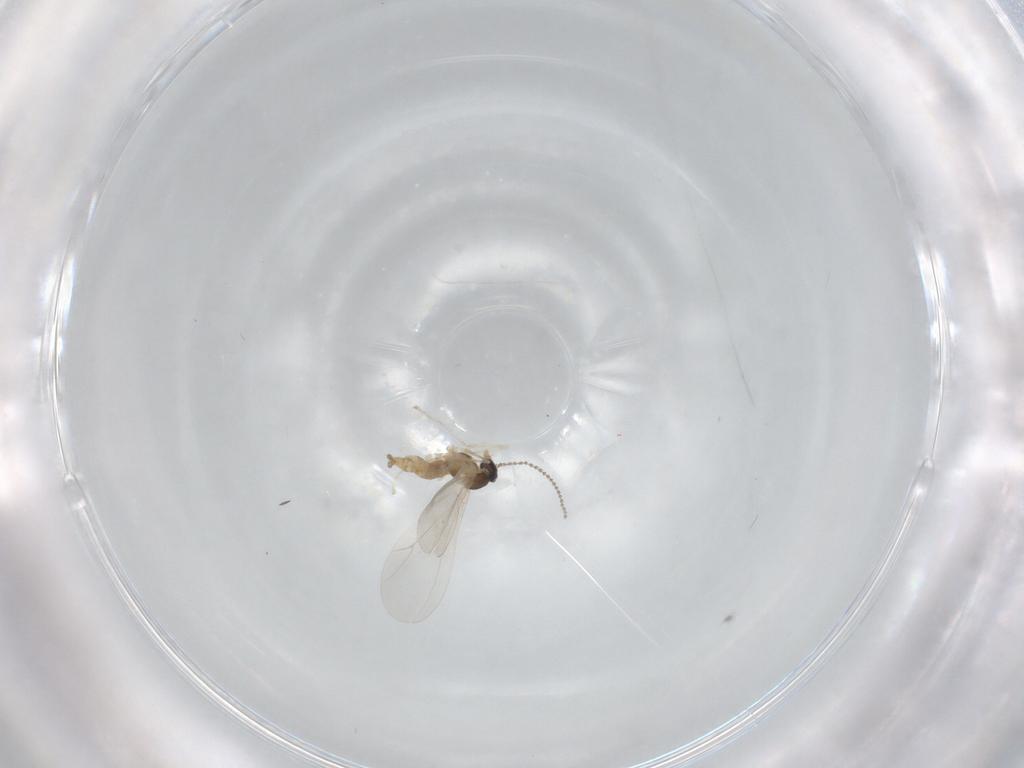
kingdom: Animalia
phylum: Arthropoda
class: Insecta
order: Diptera
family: Cecidomyiidae
